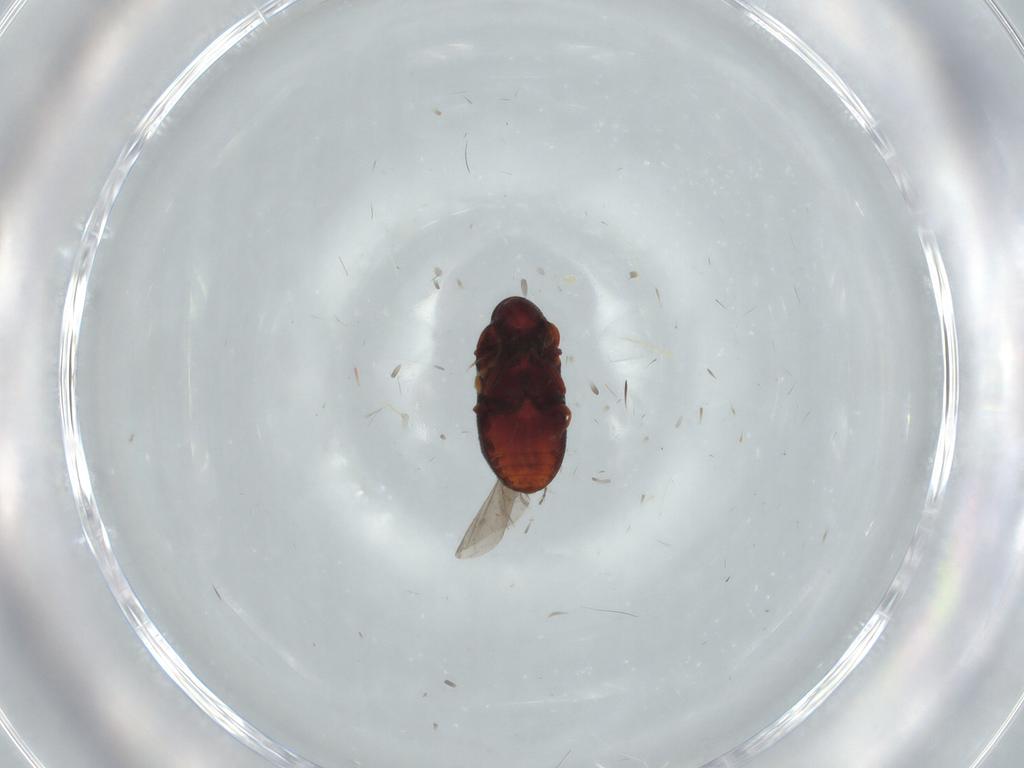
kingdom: Animalia
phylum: Arthropoda
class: Insecta
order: Coleoptera
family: Ptinidae
